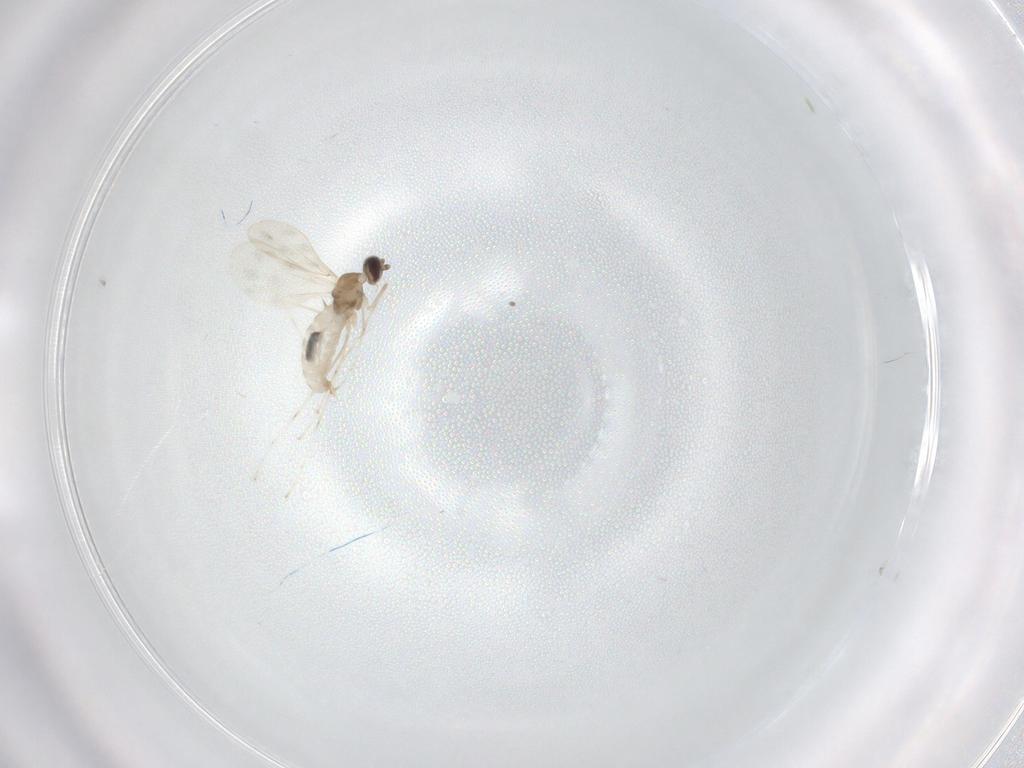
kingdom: Animalia
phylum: Arthropoda
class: Insecta
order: Diptera
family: Cecidomyiidae
